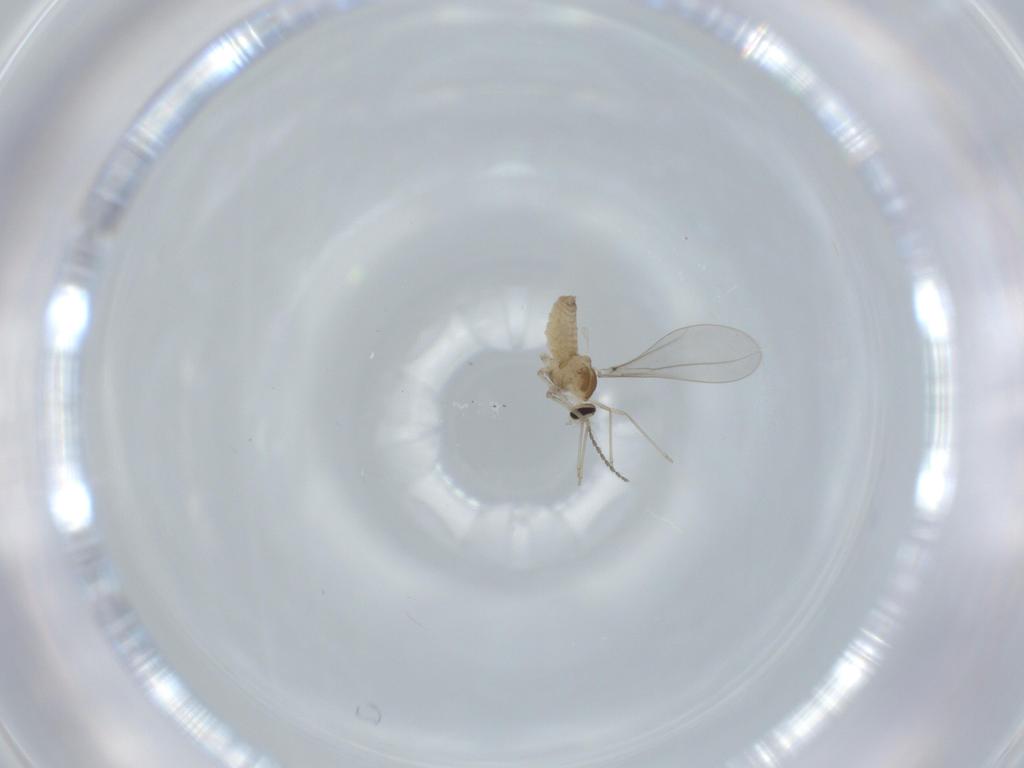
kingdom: Animalia
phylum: Arthropoda
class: Insecta
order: Diptera
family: Cecidomyiidae
